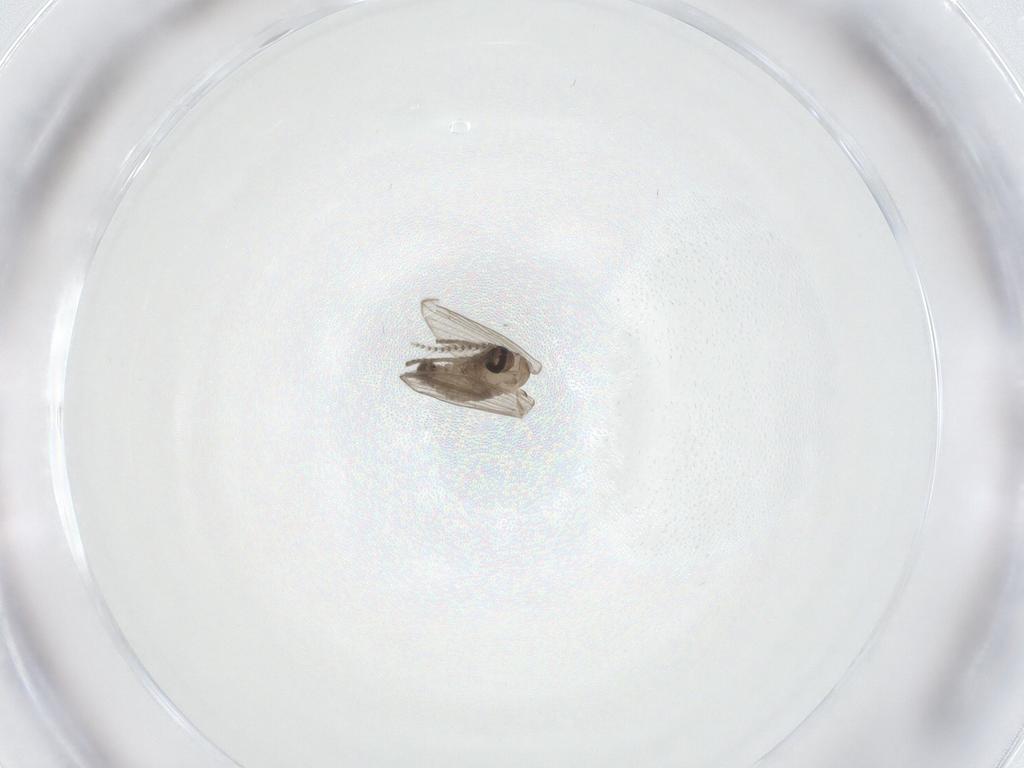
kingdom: Animalia
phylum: Arthropoda
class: Insecta
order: Diptera
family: Psychodidae
